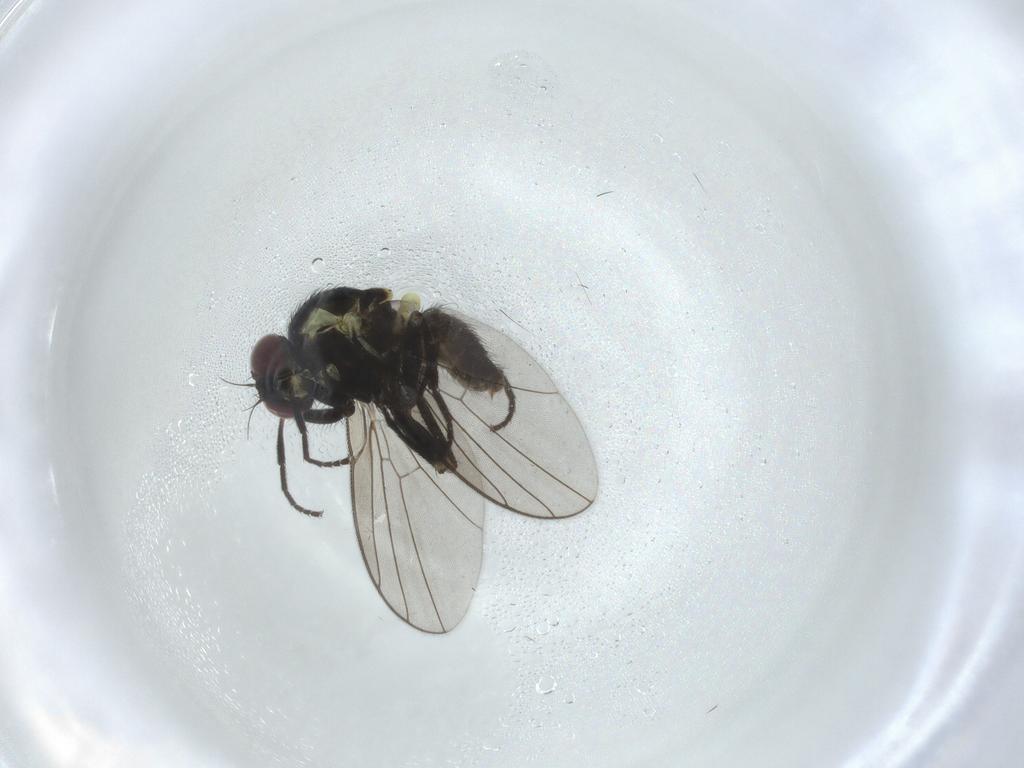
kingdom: Animalia
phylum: Arthropoda
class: Insecta
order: Diptera
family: Agromyzidae
